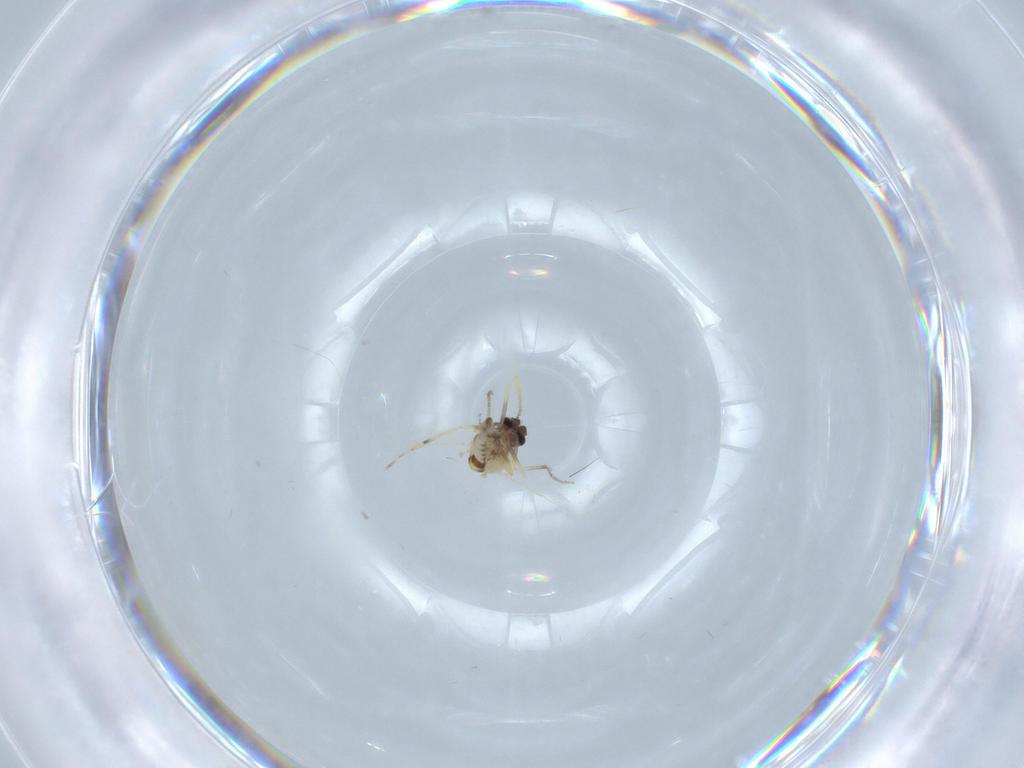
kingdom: Animalia
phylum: Arthropoda
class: Insecta
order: Diptera
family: Ceratopogonidae
